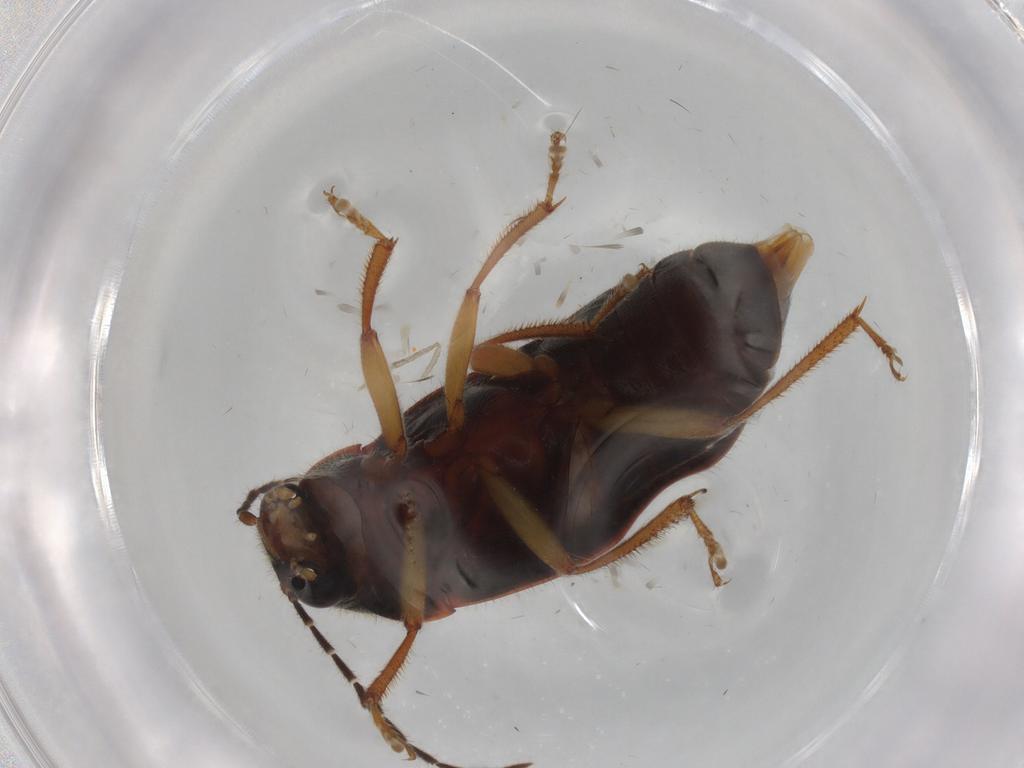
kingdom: Animalia
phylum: Arthropoda
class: Insecta
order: Coleoptera
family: Ptilodactylidae
